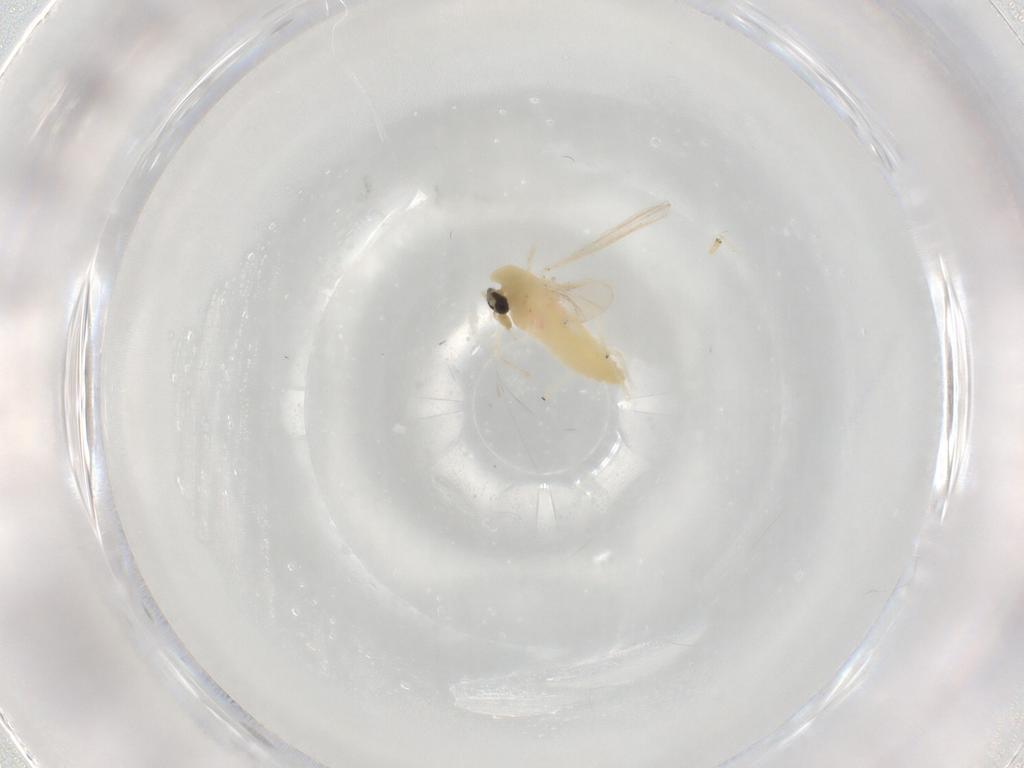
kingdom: Animalia
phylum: Arthropoda
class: Insecta
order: Diptera
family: Chironomidae
